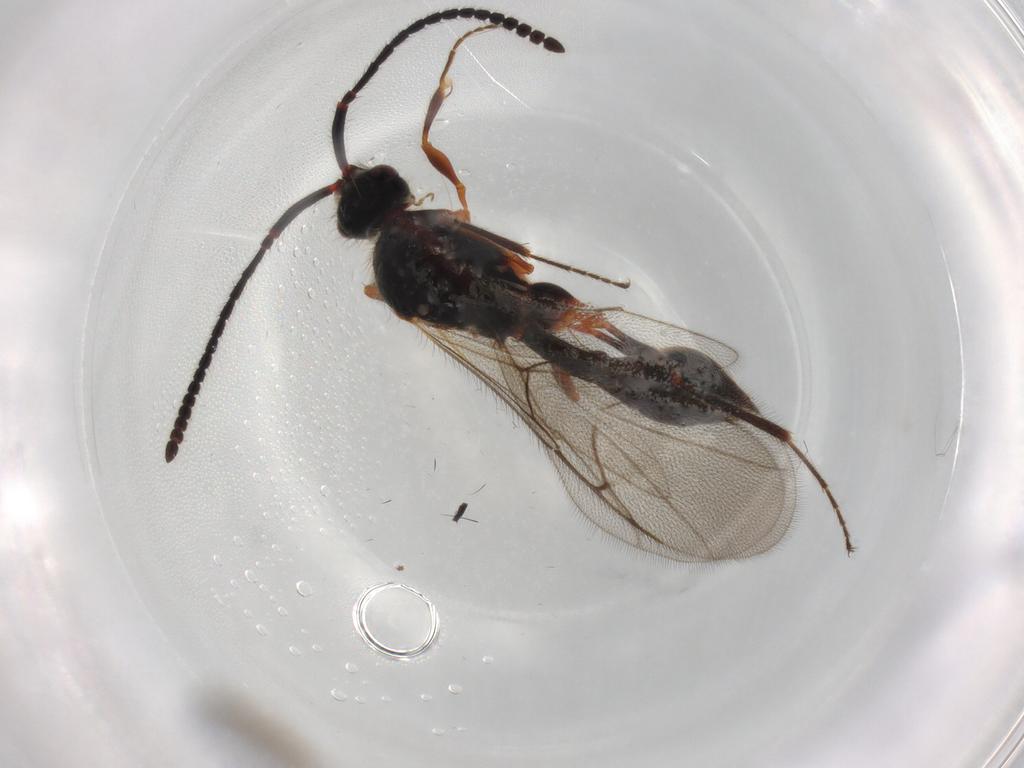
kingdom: Animalia
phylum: Arthropoda
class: Insecta
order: Hymenoptera
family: Diapriidae
